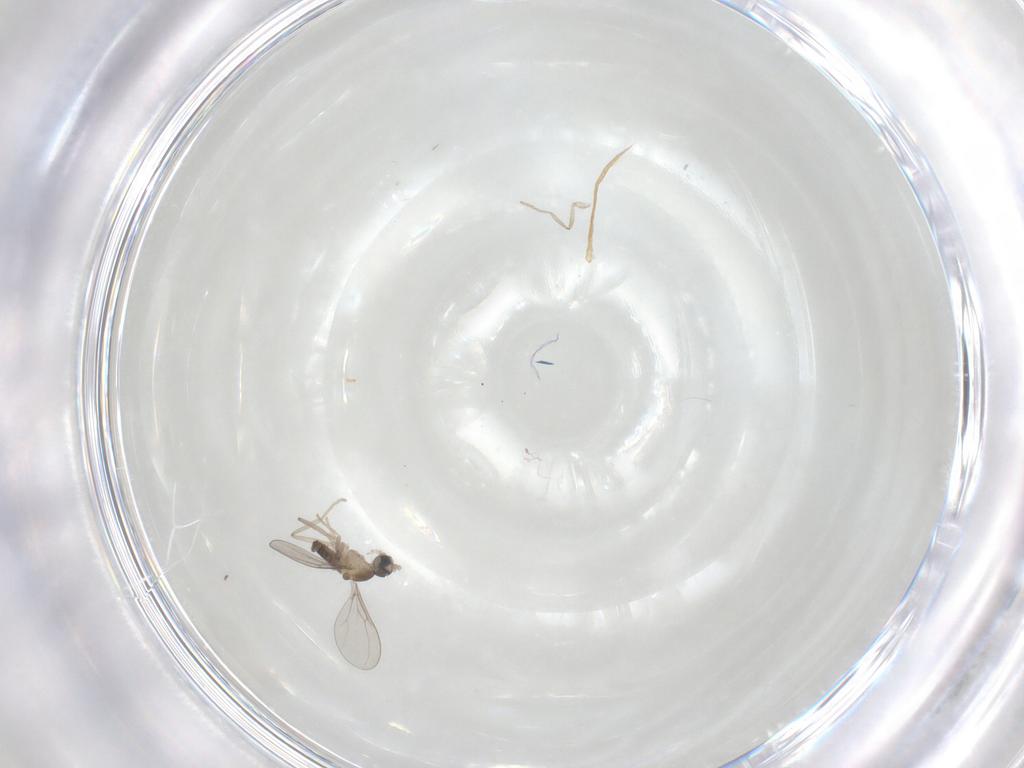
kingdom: Animalia
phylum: Arthropoda
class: Insecta
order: Diptera
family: Cecidomyiidae
